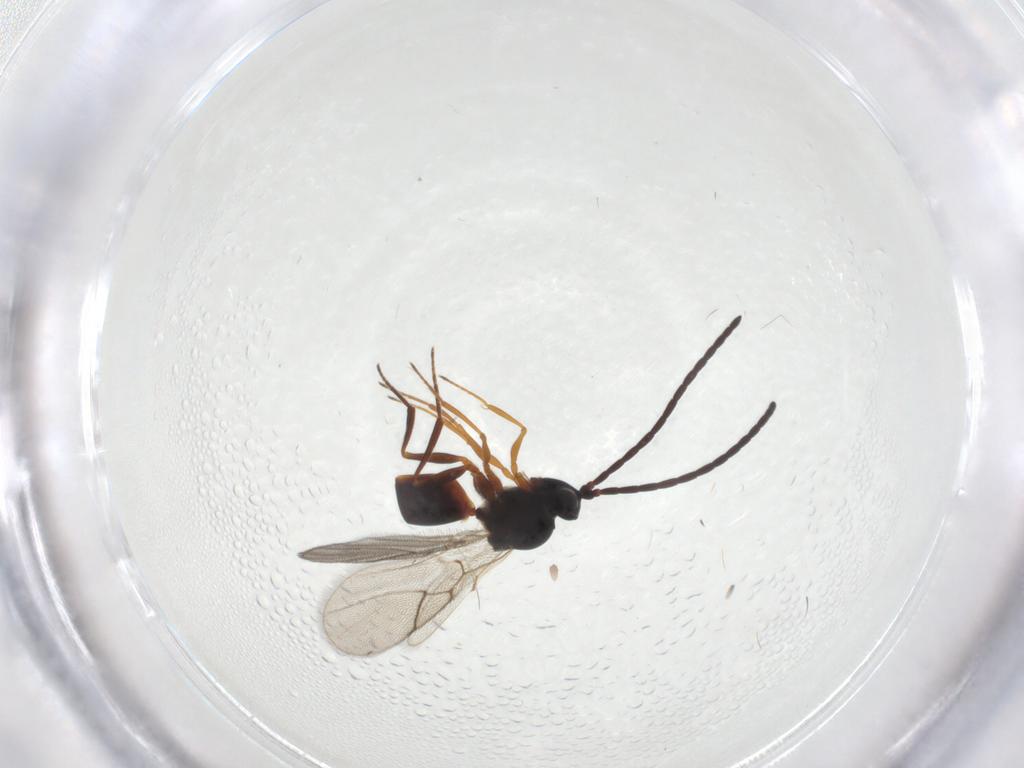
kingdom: Animalia
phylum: Arthropoda
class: Insecta
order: Hymenoptera
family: Figitidae
